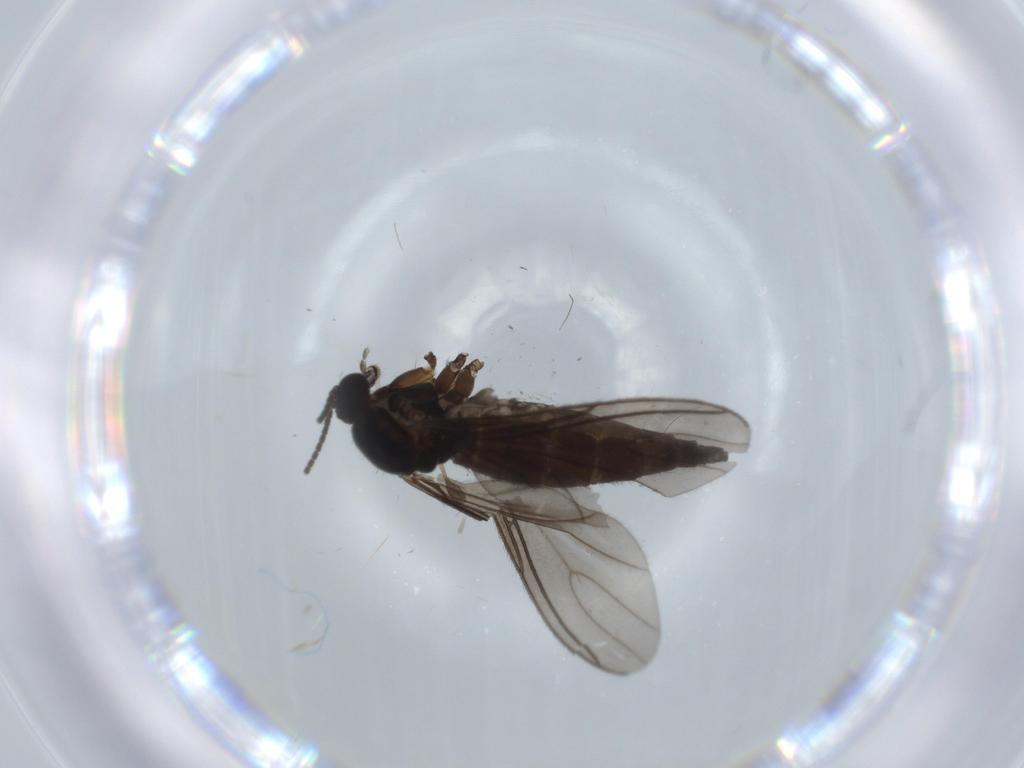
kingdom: Animalia
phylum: Arthropoda
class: Insecta
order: Diptera
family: Sciaridae
